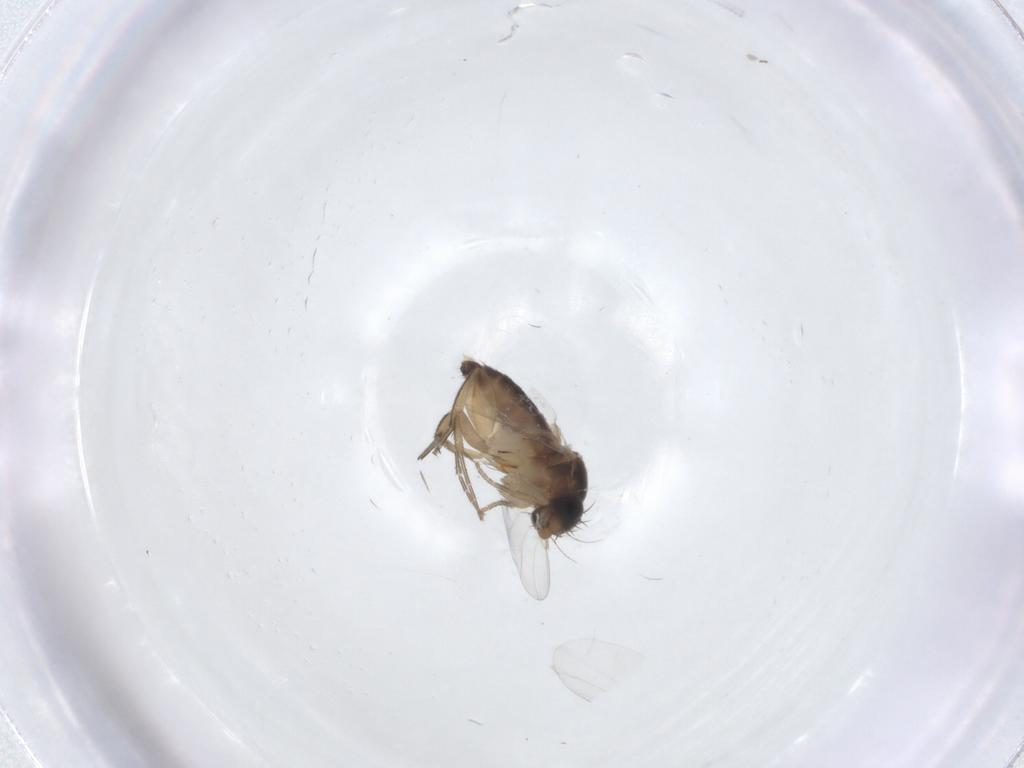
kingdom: Animalia
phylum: Arthropoda
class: Insecta
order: Diptera
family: Phoridae
